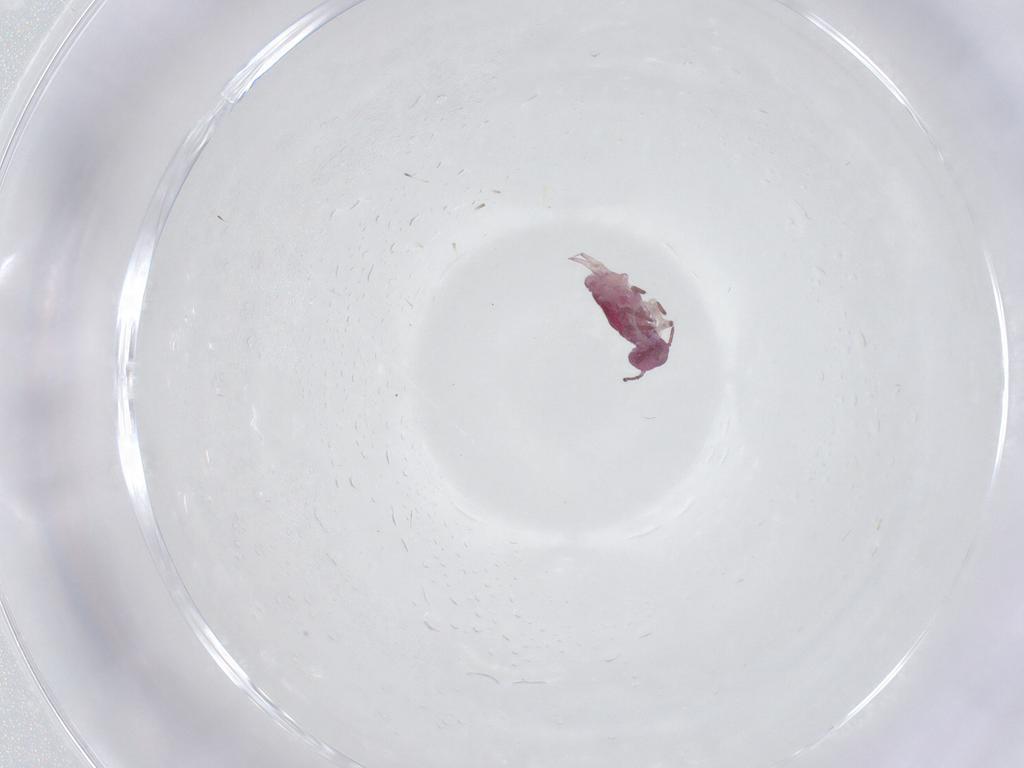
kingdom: Animalia
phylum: Arthropoda
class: Collembola
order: Symphypleona
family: Sminthuridae
